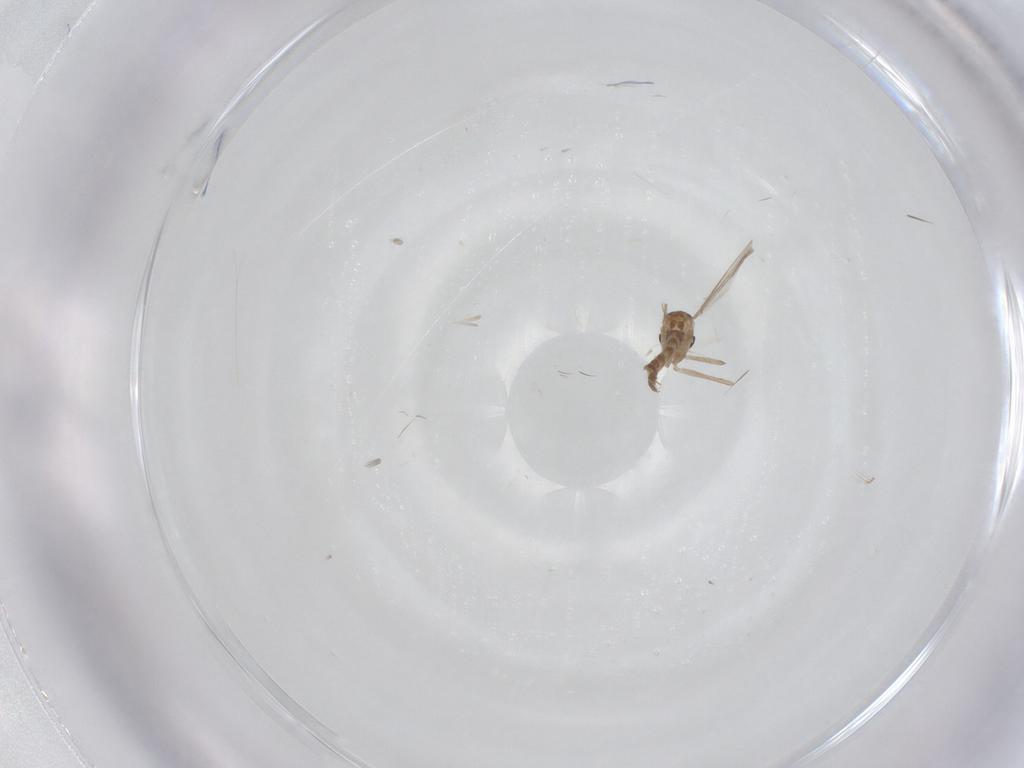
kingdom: Animalia
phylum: Arthropoda
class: Insecta
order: Diptera
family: Chironomidae
